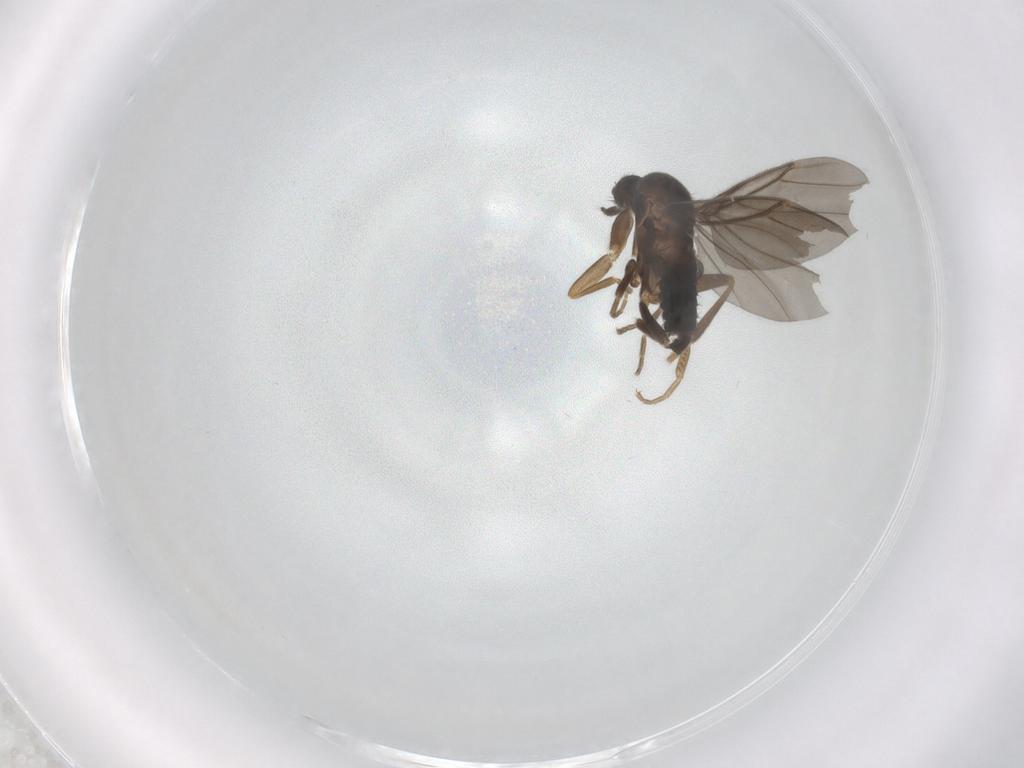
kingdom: Animalia
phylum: Arthropoda
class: Insecta
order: Diptera
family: Phoridae
